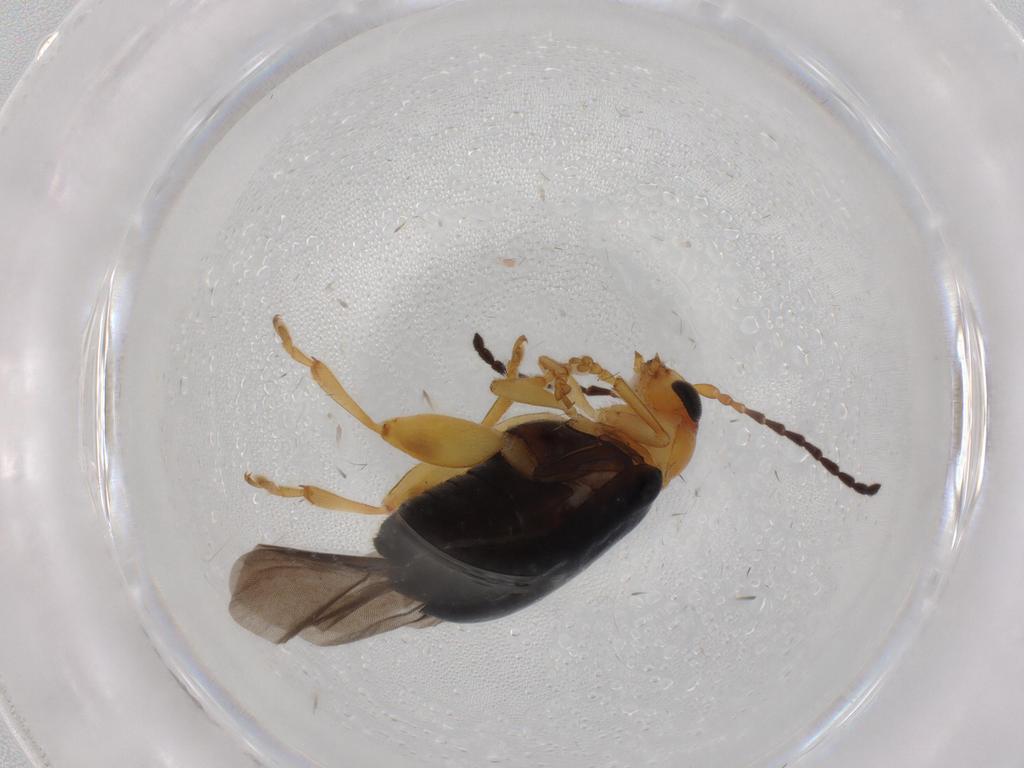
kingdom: Animalia
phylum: Arthropoda
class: Insecta
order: Coleoptera
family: Chrysomelidae
